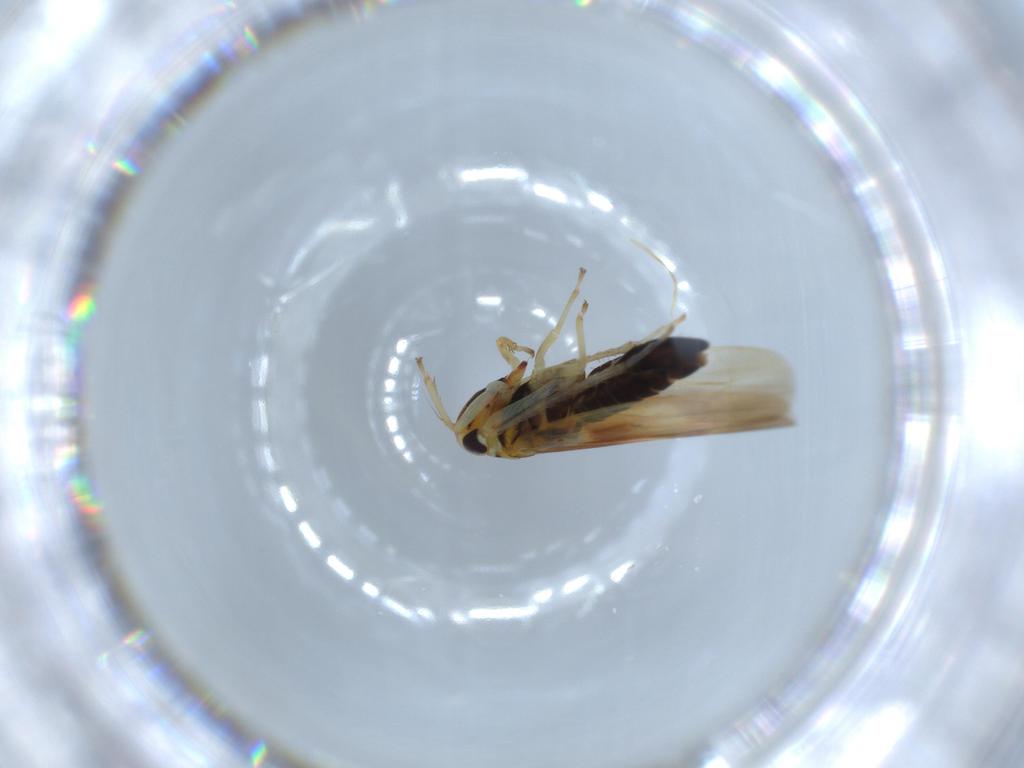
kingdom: Animalia
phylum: Arthropoda
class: Insecta
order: Hemiptera
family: Cicadellidae
